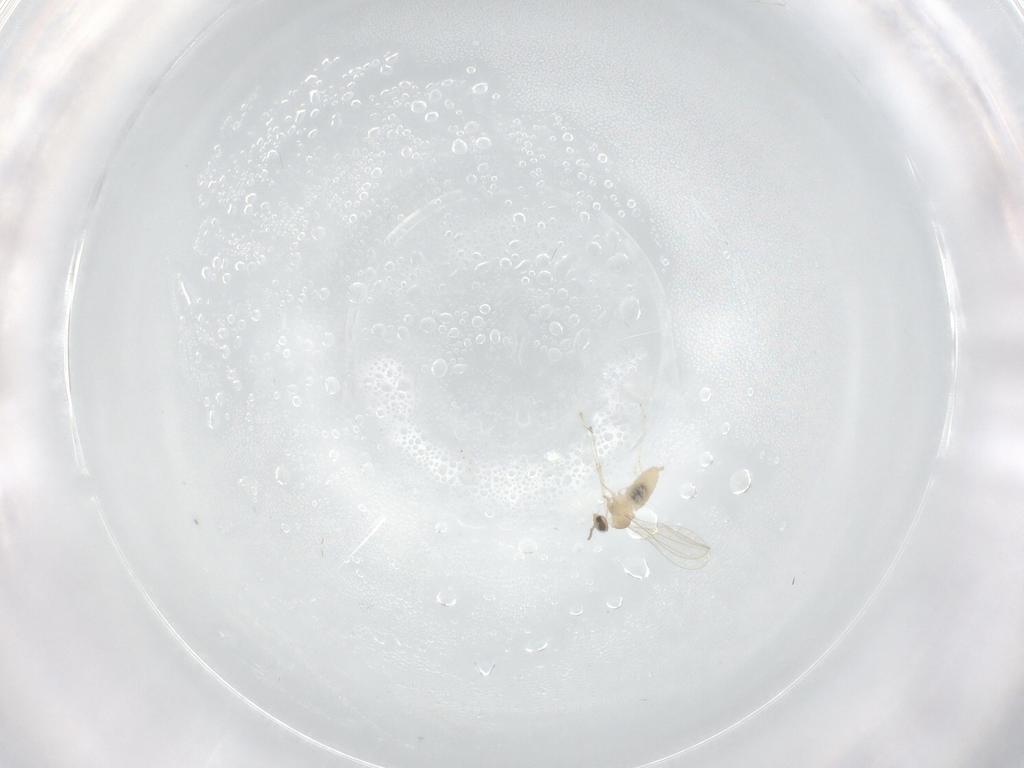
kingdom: Animalia
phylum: Arthropoda
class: Insecta
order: Diptera
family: Cecidomyiidae
